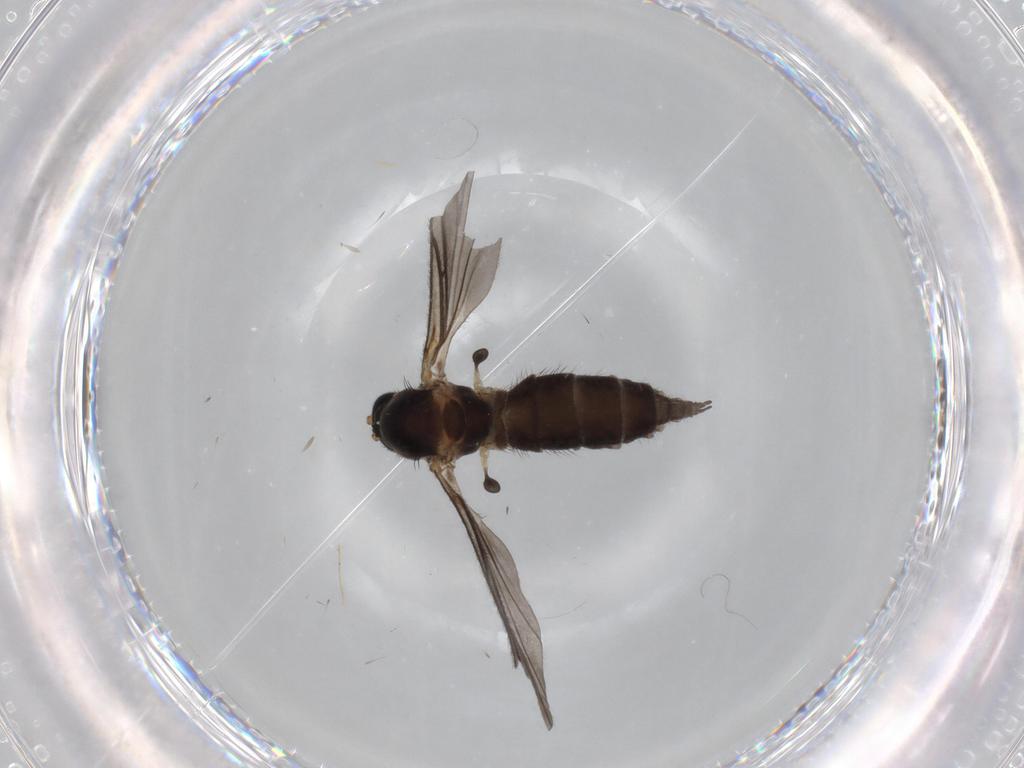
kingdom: Animalia
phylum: Arthropoda
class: Insecta
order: Diptera
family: Sciaridae
